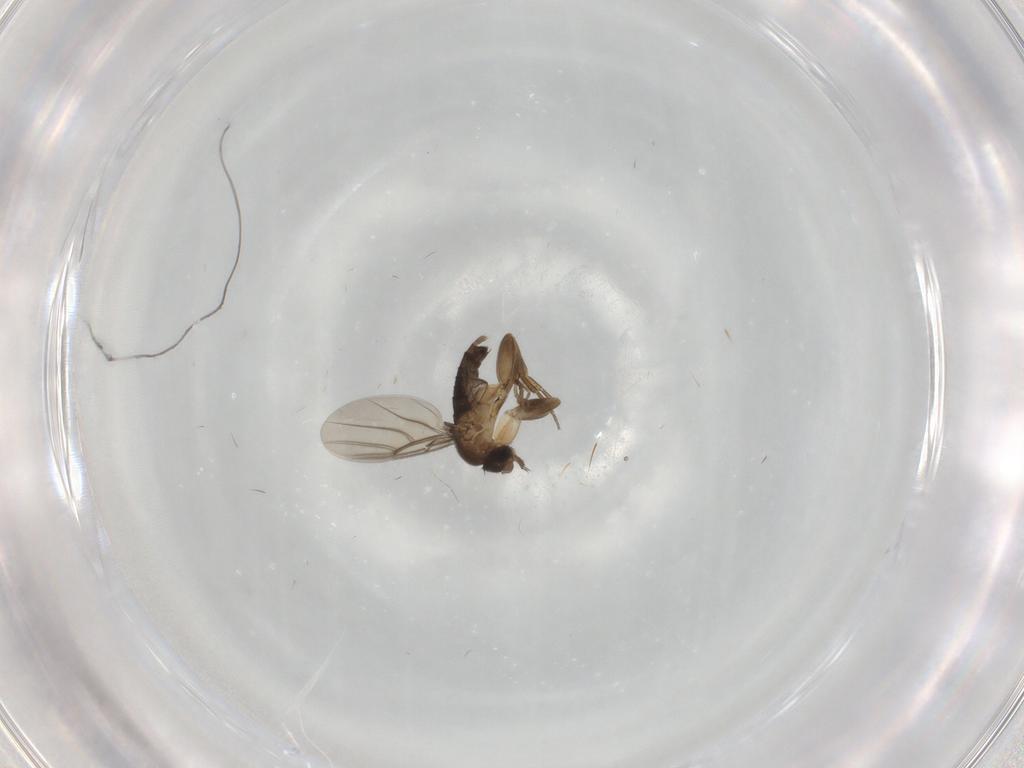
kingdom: Animalia
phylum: Arthropoda
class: Insecta
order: Diptera
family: Phoridae
